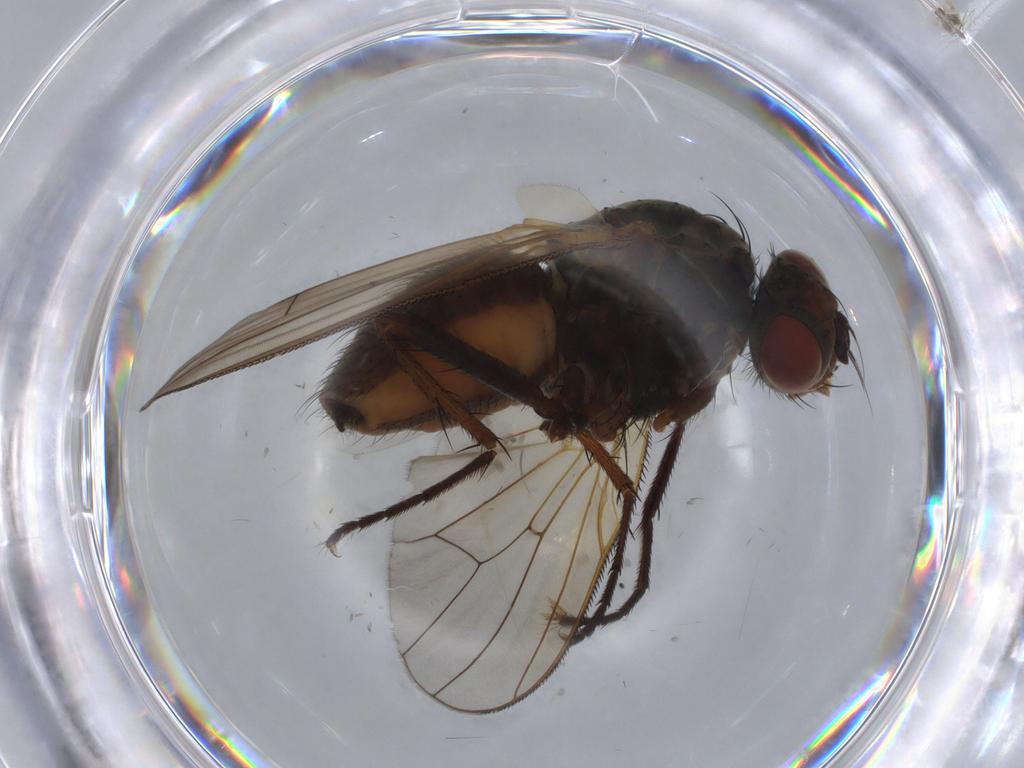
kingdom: Animalia
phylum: Arthropoda
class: Insecta
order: Diptera
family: Anthomyiidae
